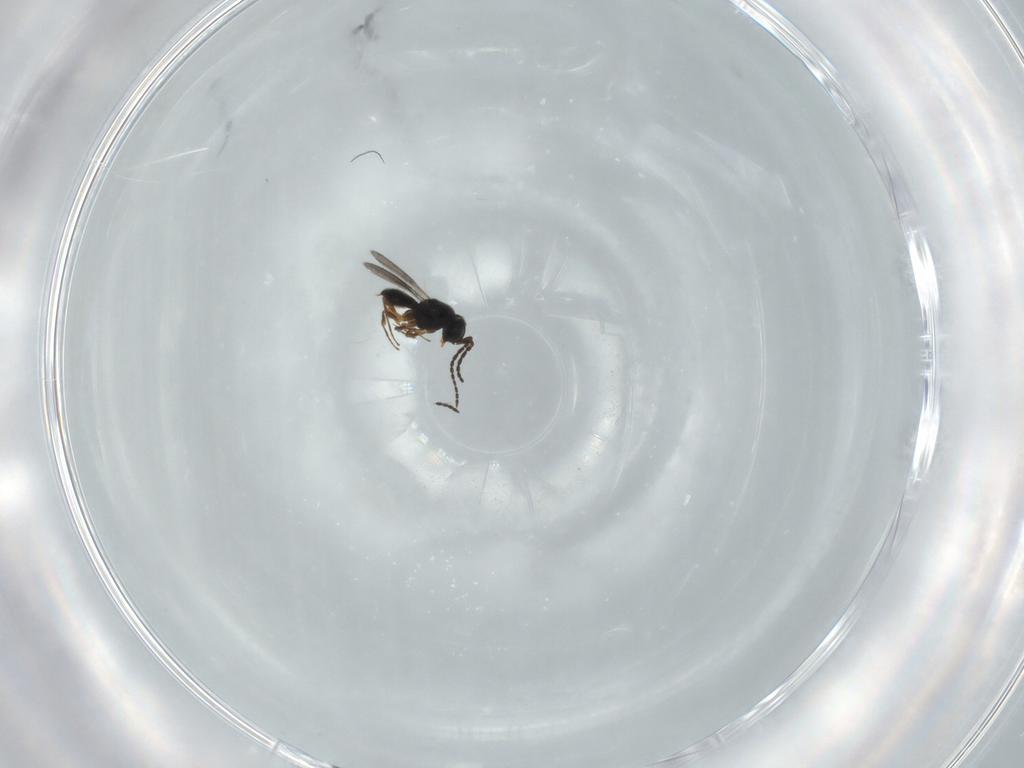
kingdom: Animalia
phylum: Arthropoda
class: Insecta
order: Hymenoptera
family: Scelionidae
